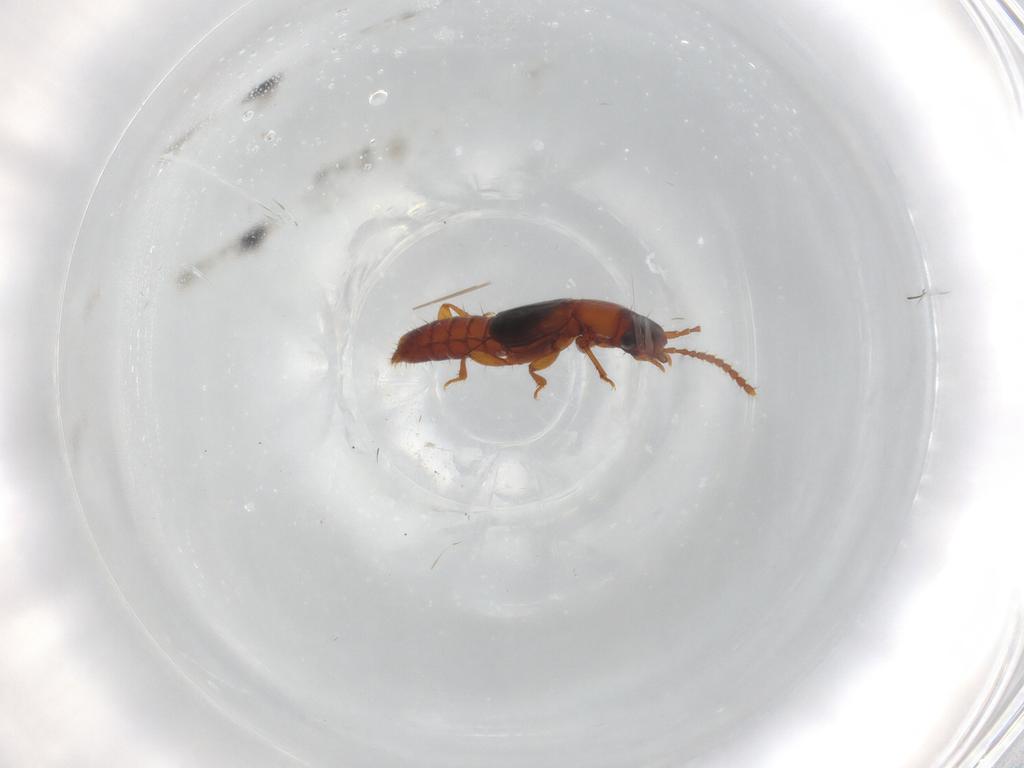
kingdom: Animalia
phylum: Arthropoda
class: Insecta
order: Coleoptera
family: Staphylinidae
